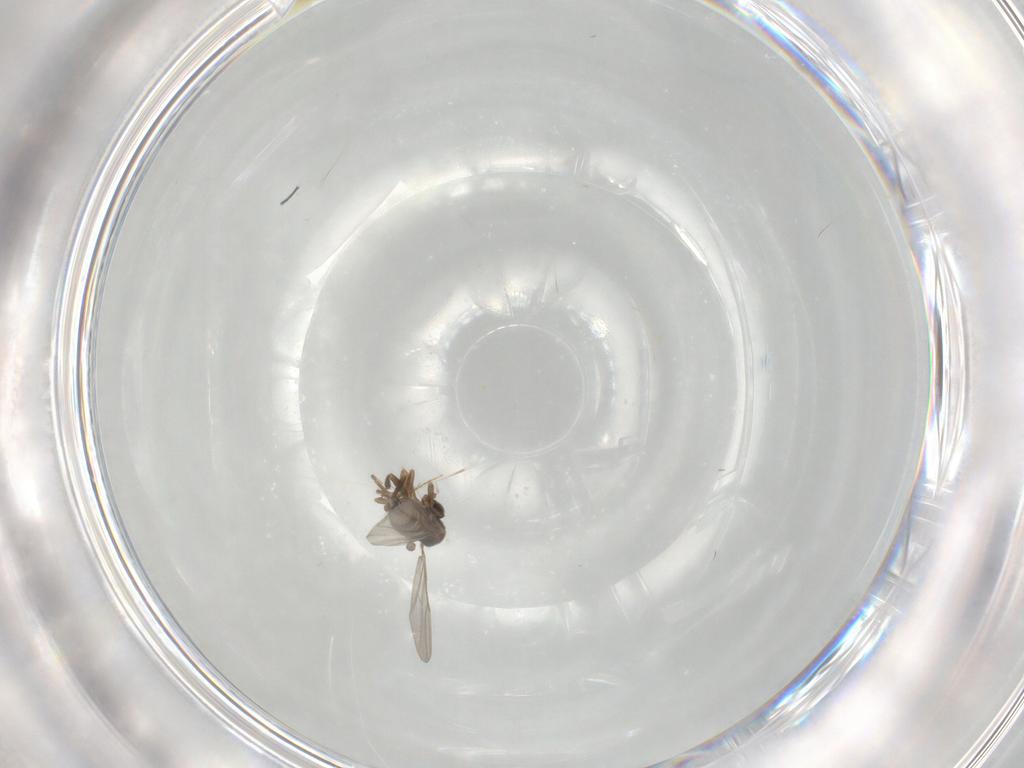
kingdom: Animalia
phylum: Arthropoda
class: Insecta
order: Diptera
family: Phoridae
